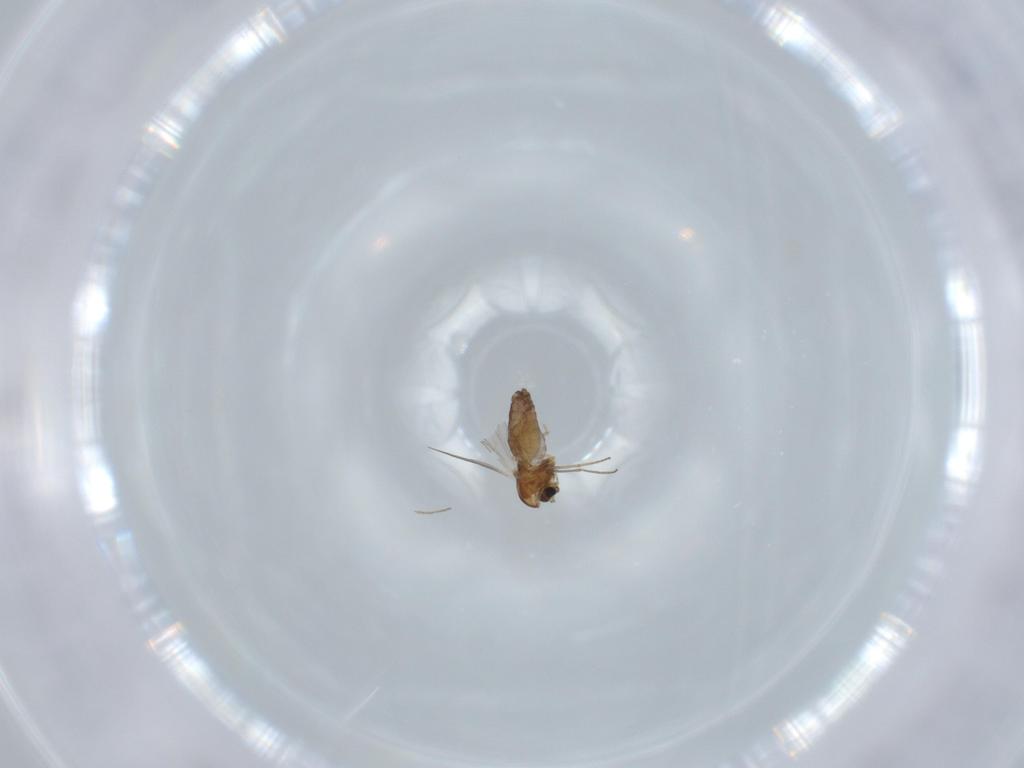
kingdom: Animalia
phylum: Arthropoda
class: Insecta
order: Diptera
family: Chironomidae
